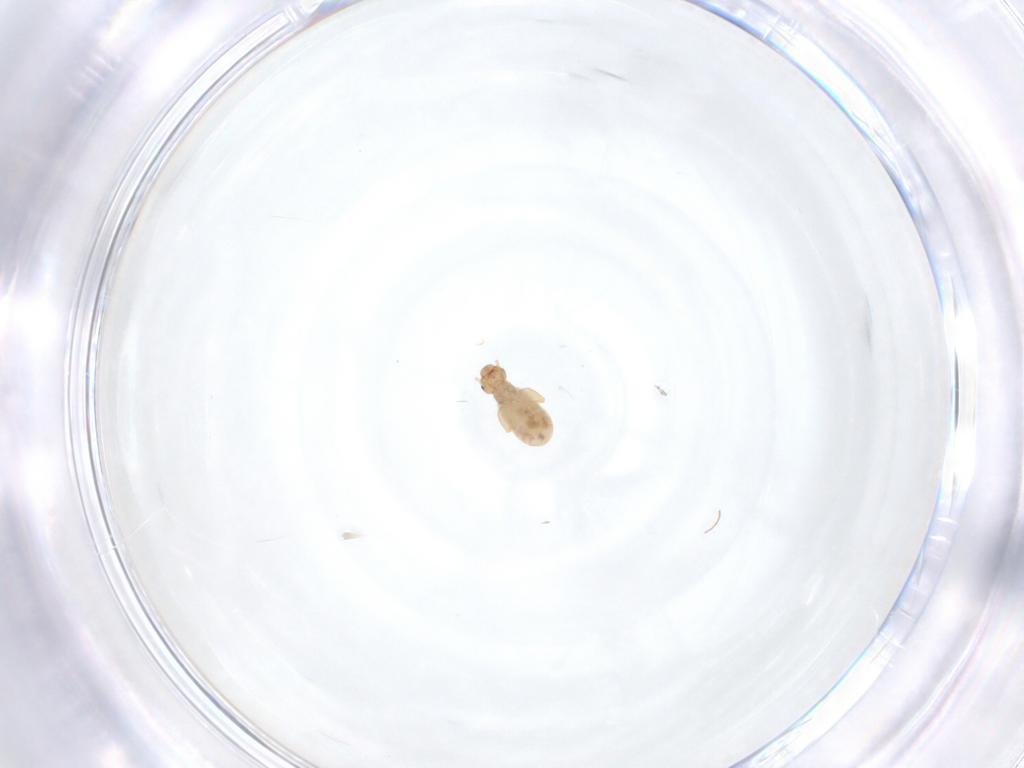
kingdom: Animalia
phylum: Arthropoda
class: Insecta
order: Psocodea
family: Liposcelididae
